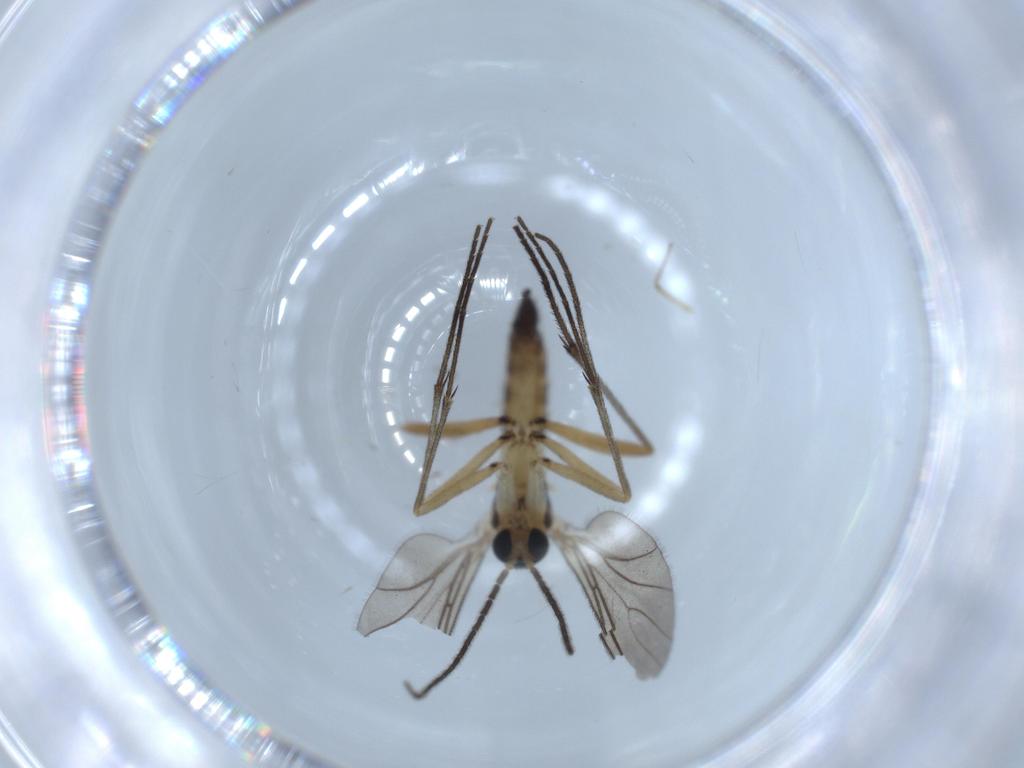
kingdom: Animalia
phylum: Arthropoda
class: Insecta
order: Diptera
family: Sciaridae
